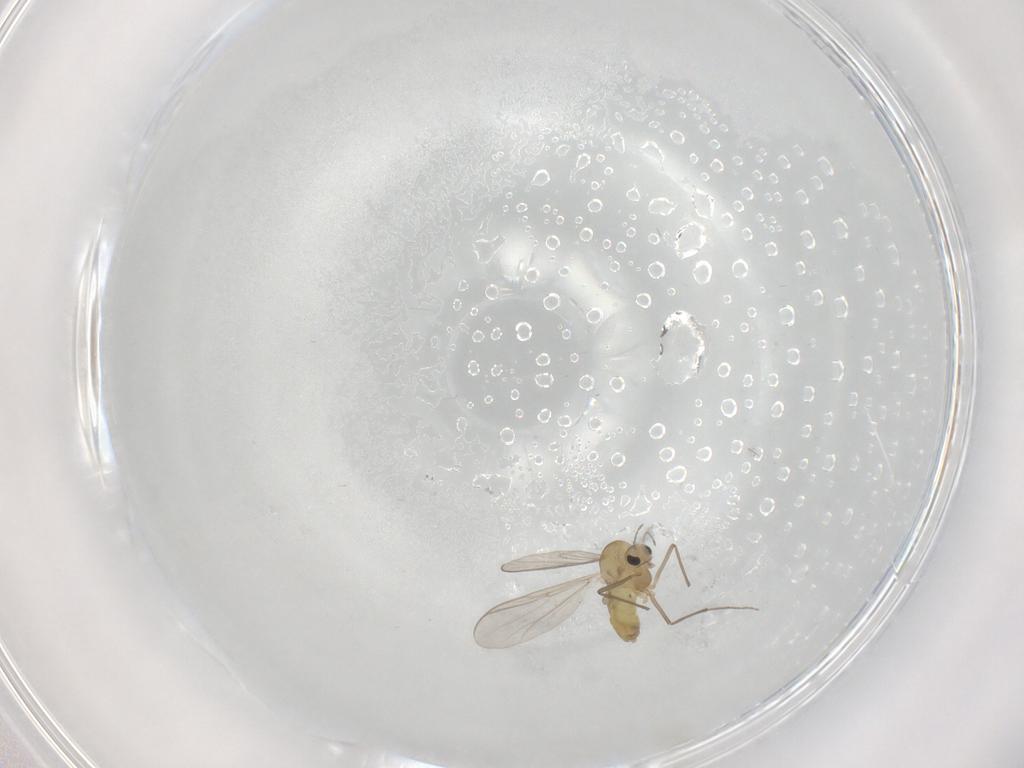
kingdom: Animalia
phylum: Arthropoda
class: Insecta
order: Diptera
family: Chironomidae
